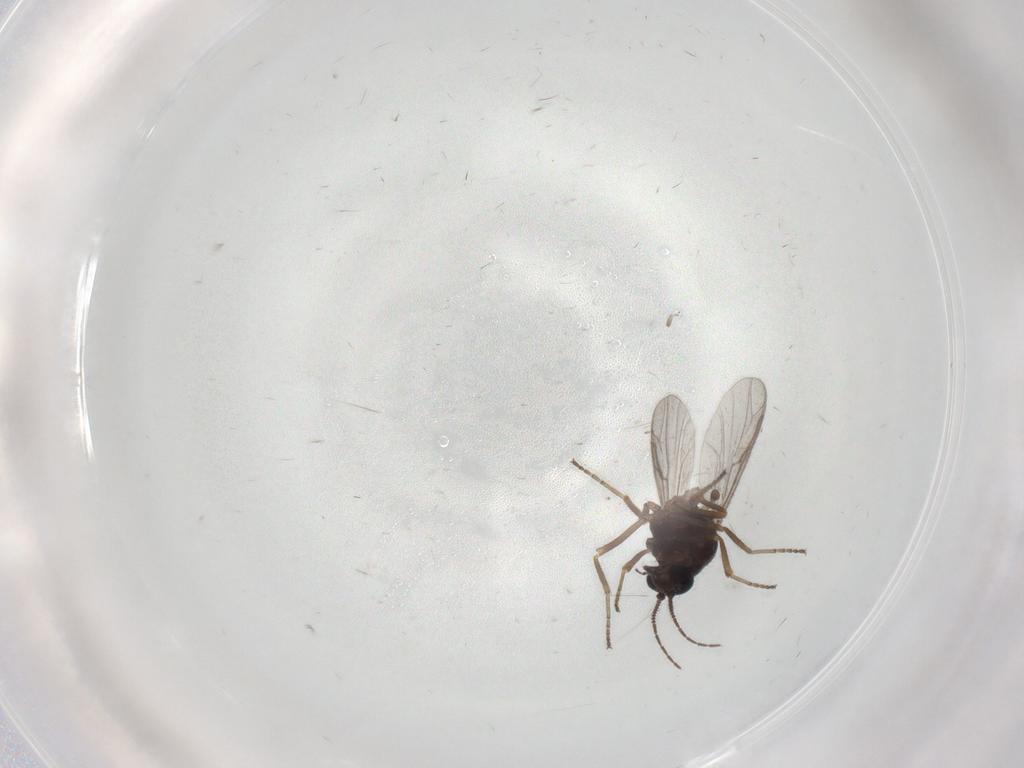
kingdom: Animalia
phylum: Arthropoda
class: Insecta
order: Diptera
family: Ceratopogonidae
